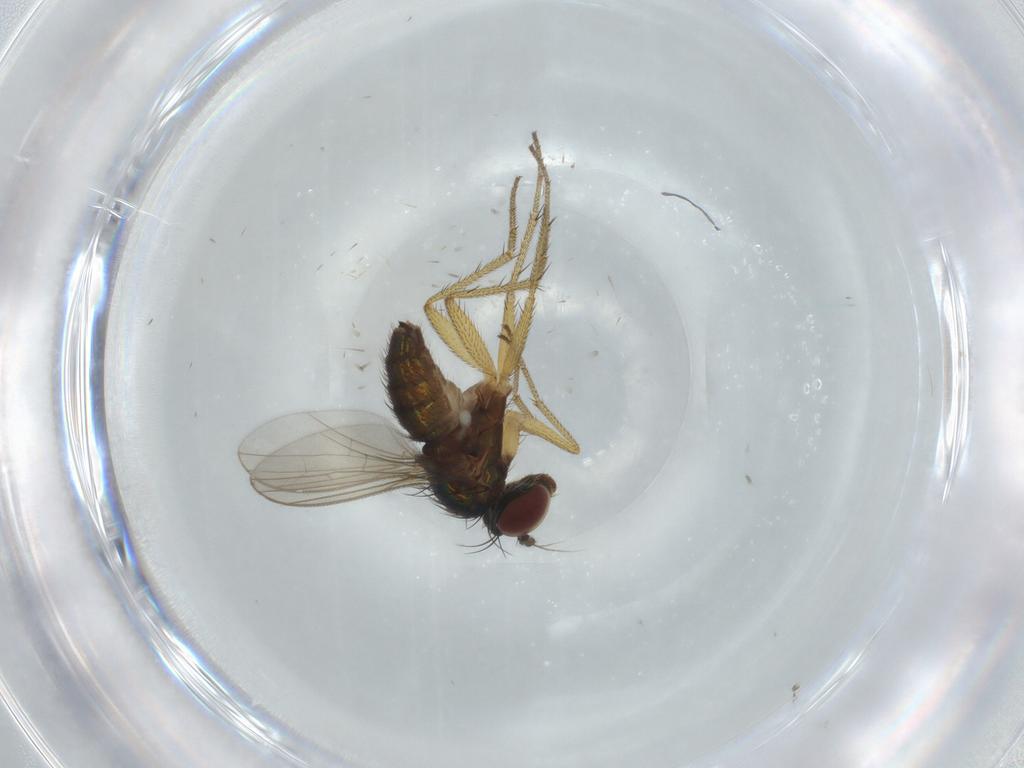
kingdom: Animalia
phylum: Arthropoda
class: Insecta
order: Diptera
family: Dolichopodidae
